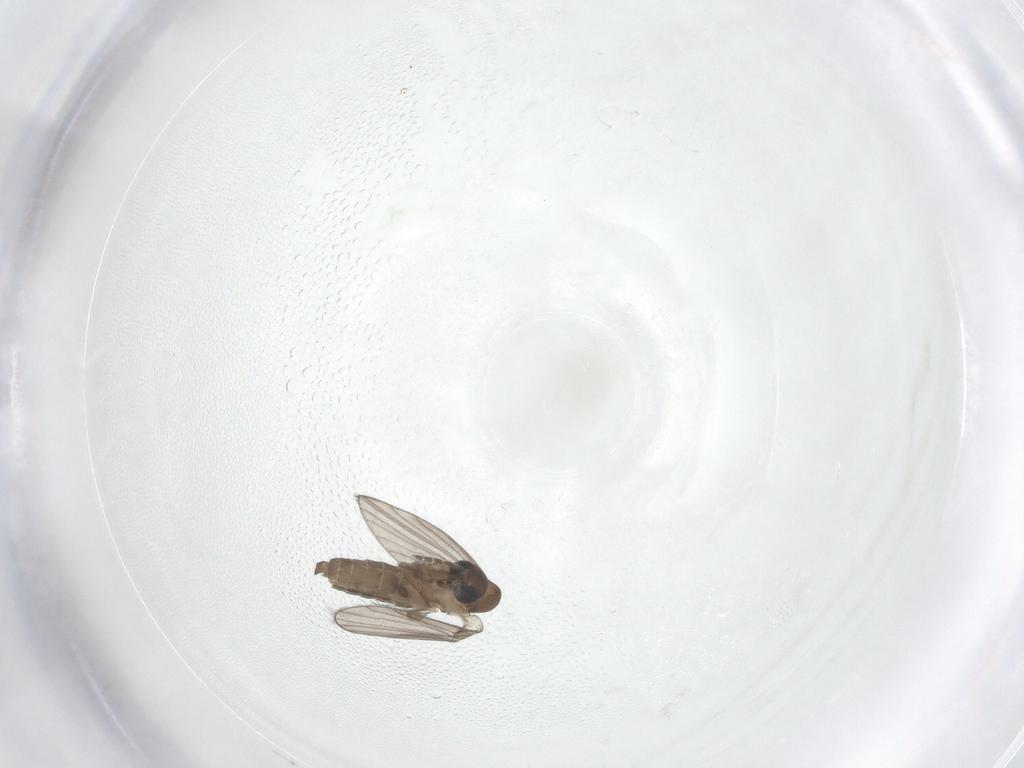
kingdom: Animalia
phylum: Arthropoda
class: Insecta
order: Diptera
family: Psychodidae
